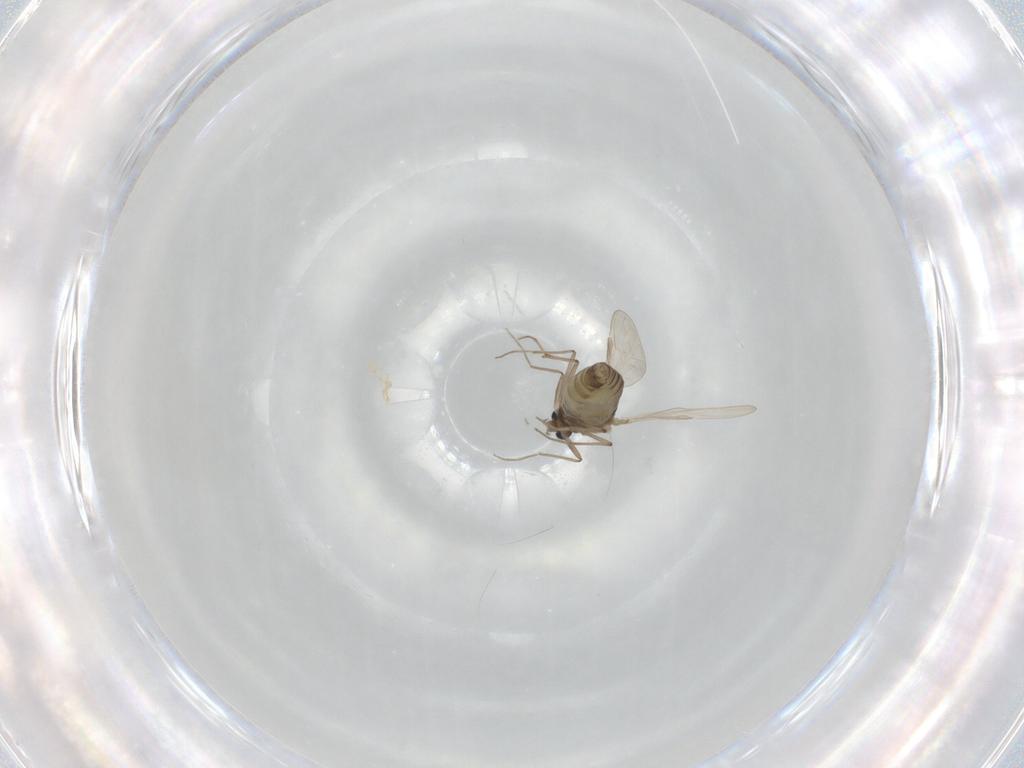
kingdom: Animalia
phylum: Arthropoda
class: Insecta
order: Diptera
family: Chironomidae
